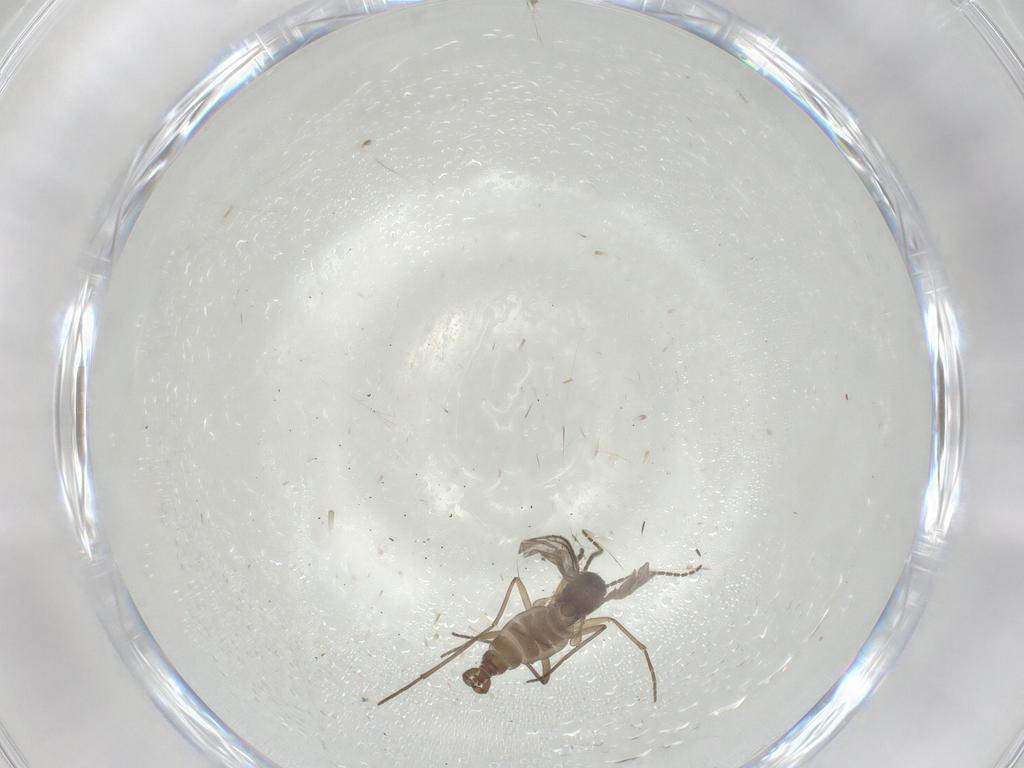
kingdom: Animalia
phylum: Arthropoda
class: Insecta
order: Diptera
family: Sciaridae
